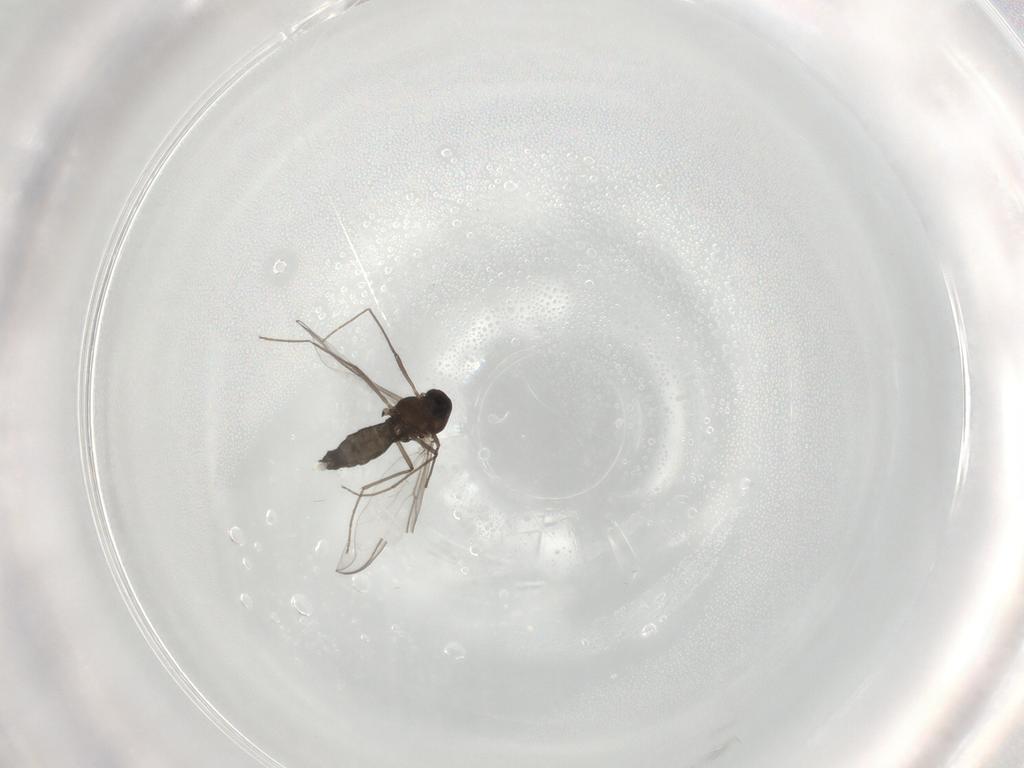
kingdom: Animalia
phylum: Arthropoda
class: Insecta
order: Diptera
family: Chironomidae
